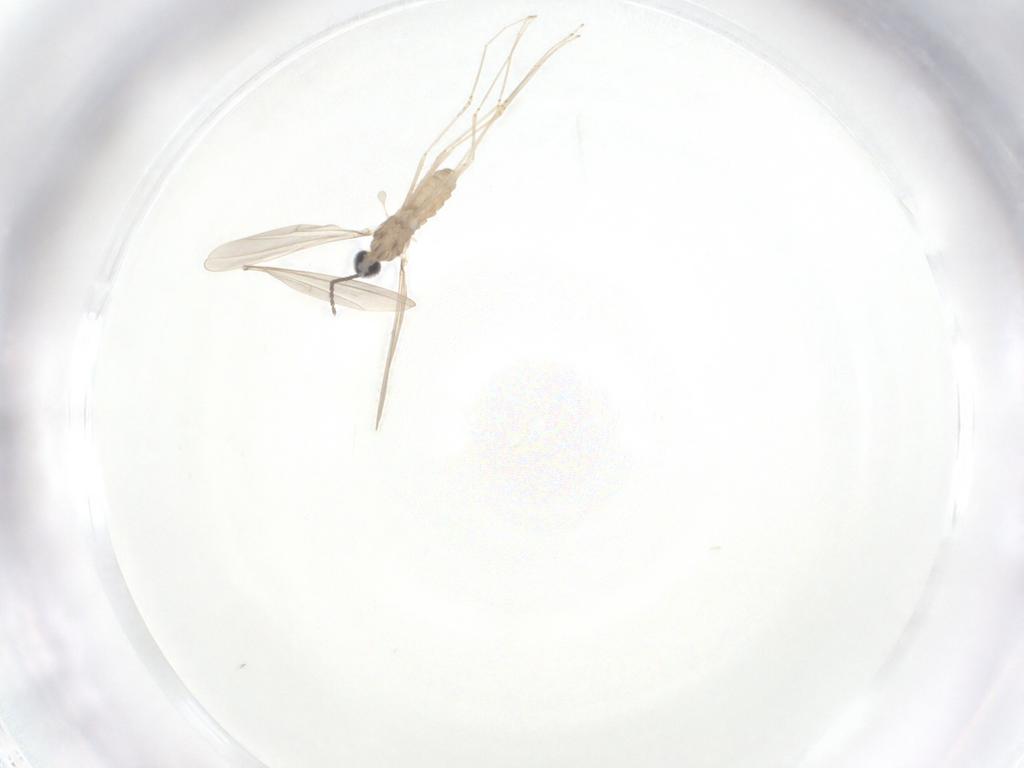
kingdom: Animalia
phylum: Arthropoda
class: Insecta
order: Diptera
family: Cecidomyiidae
